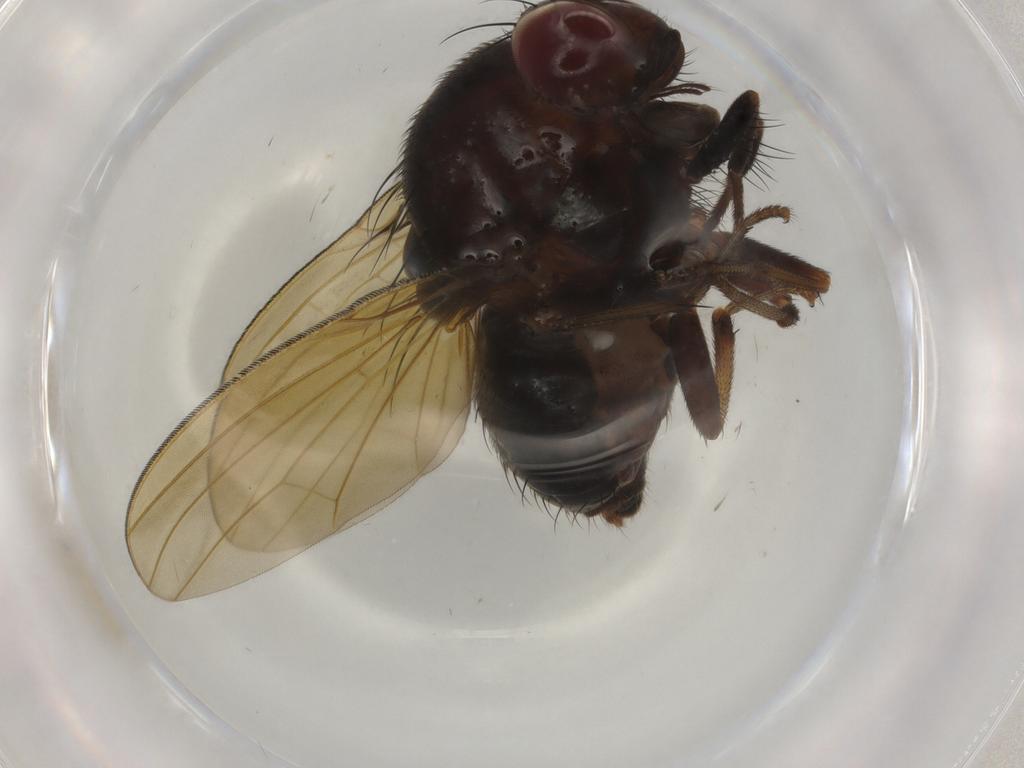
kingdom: Animalia
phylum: Arthropoda
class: Insecta
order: Diptera
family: Lauxaniidae
